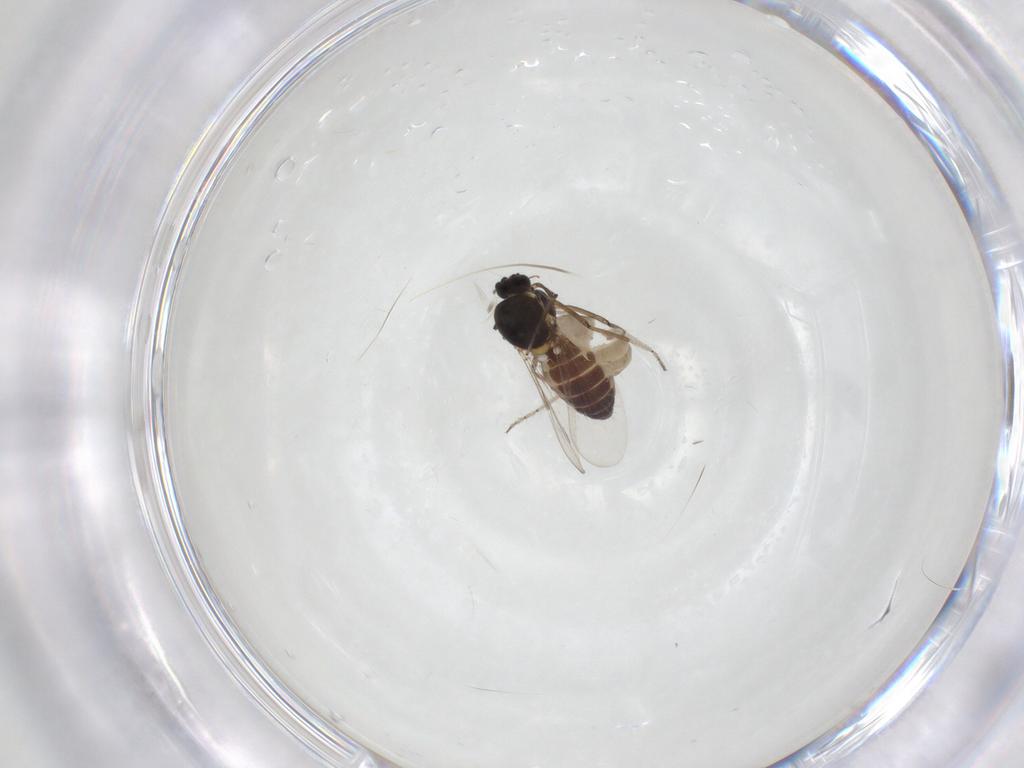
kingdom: Animalia
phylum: Arthropoda
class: Insecta
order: Diptera
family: Ceratopogonidae
